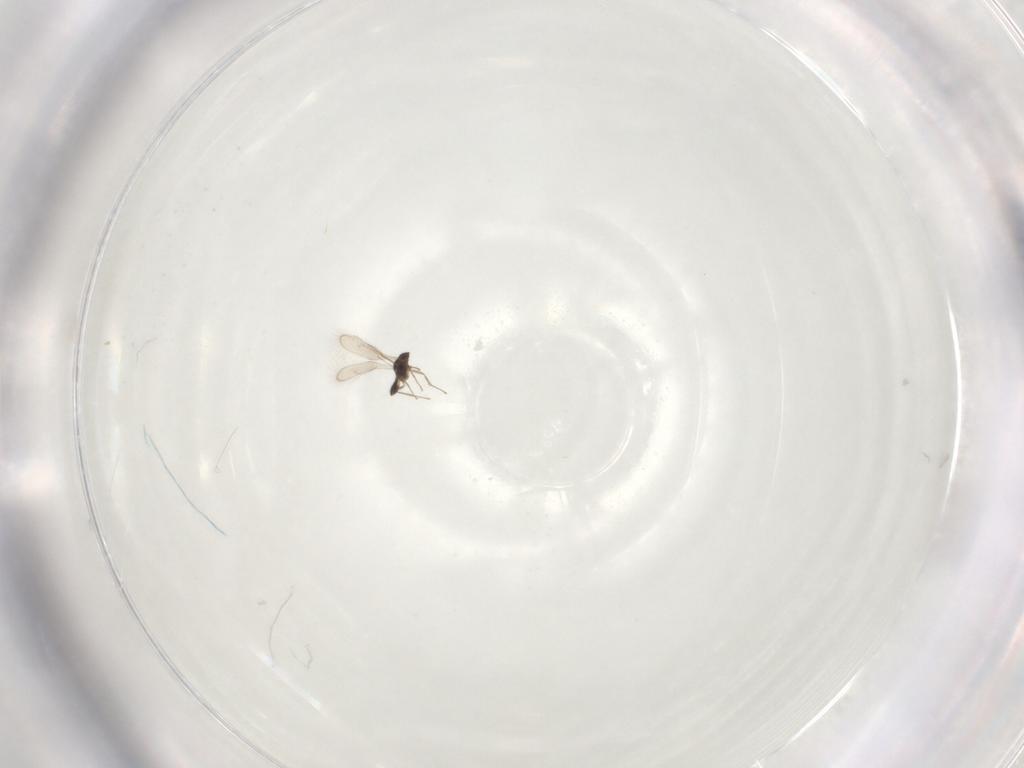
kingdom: Animalia
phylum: Arthropoda
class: Insecta
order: Hymenoptera
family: Pteromalidae
